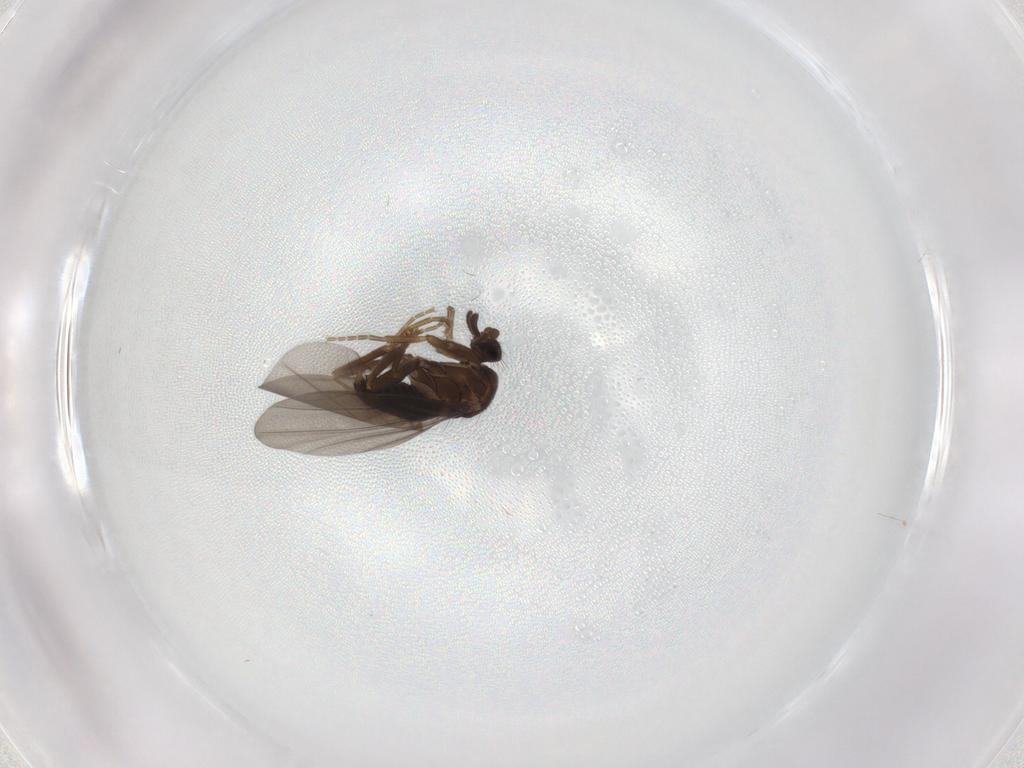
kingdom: Animalia
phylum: Arthropoda
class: Insecta
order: Diptera
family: Phoridae
